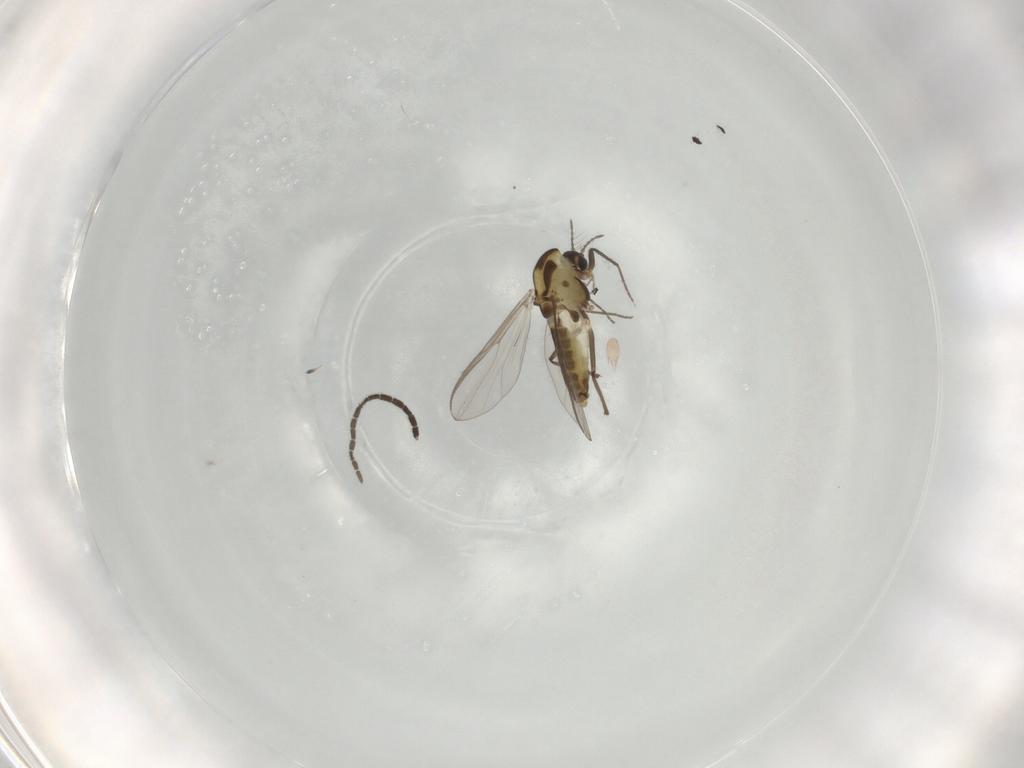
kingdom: Animalia
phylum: Arthropoda
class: Insecta
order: Diptera
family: Chironomidae
